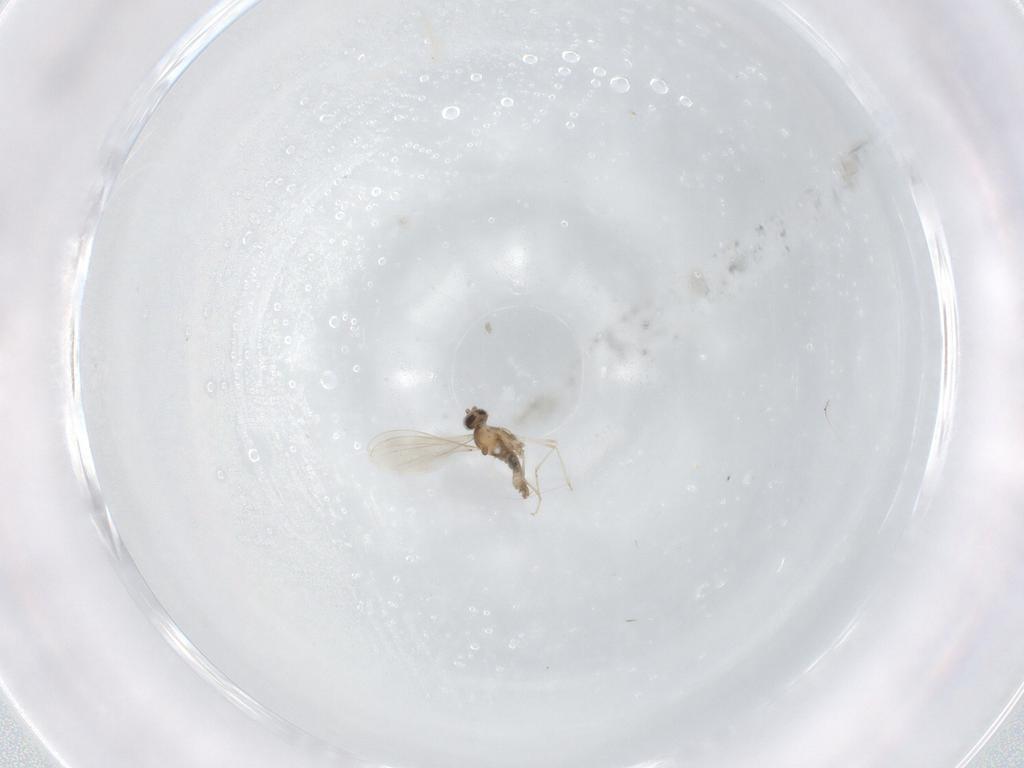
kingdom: Animalia
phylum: Arthropoda
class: Insecta
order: Diptera
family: Cecidomyiidae
